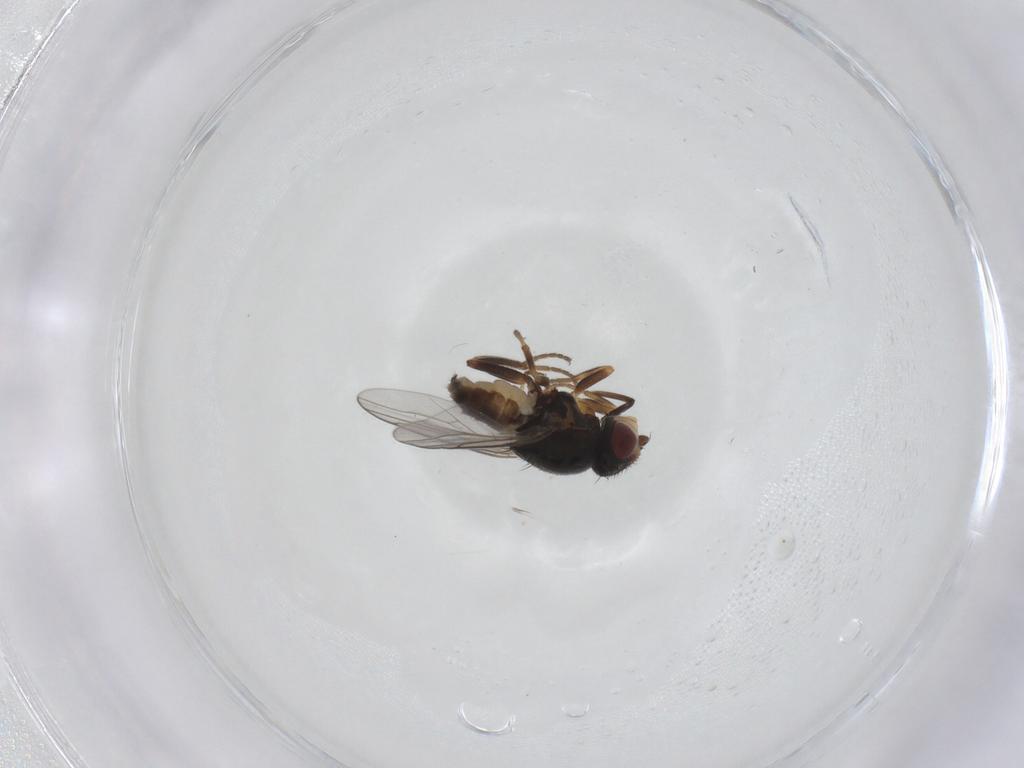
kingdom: Animalia
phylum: Arthropoda
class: Insecta
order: Diptera
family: Chloropidae
